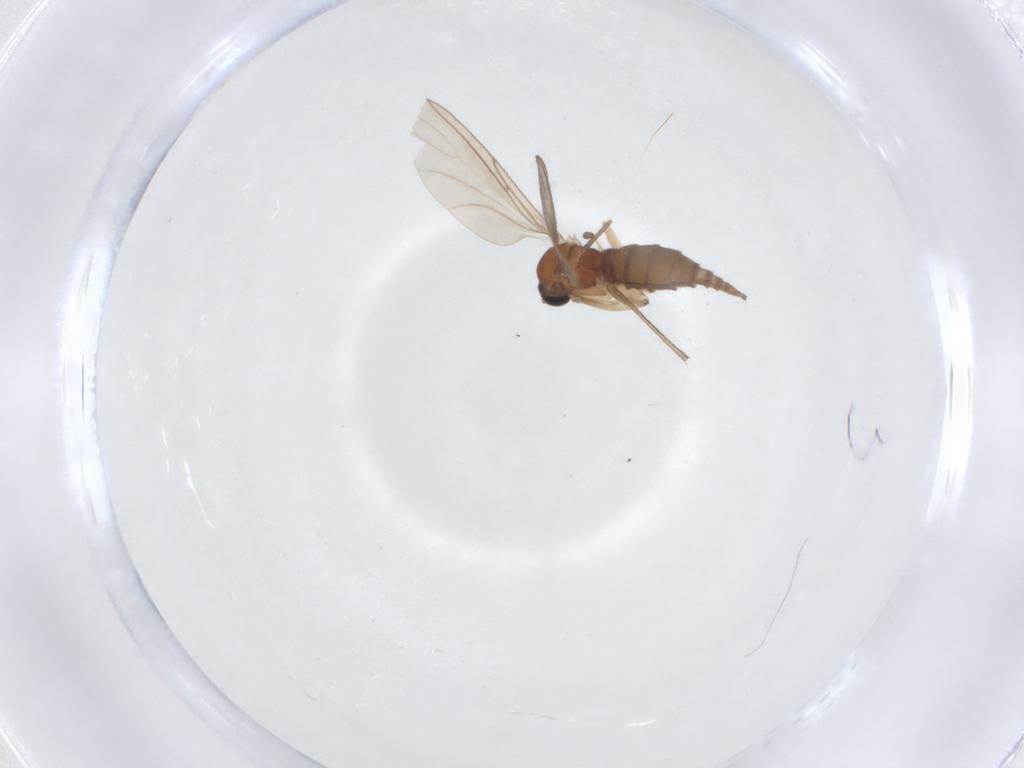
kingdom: Animalia
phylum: Arthropoda
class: Insecta
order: Diptera
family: Sciaridae
